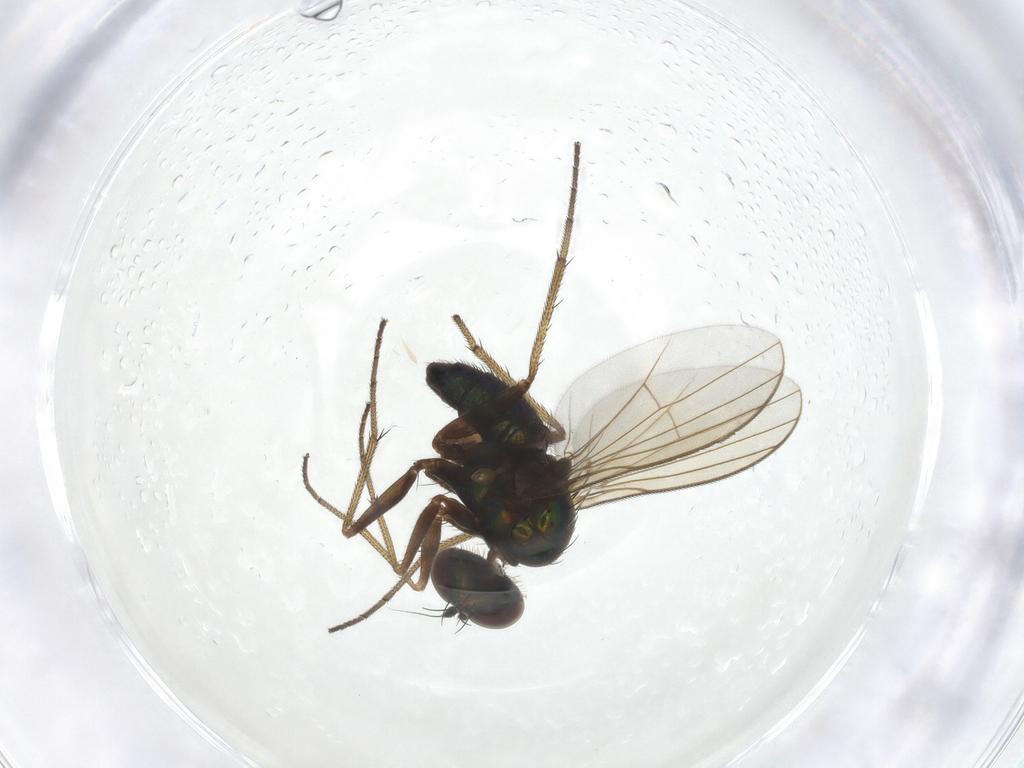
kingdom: Animalia
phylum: Arthropoda
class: Insecta
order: Diptera
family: Dolichopodidae
